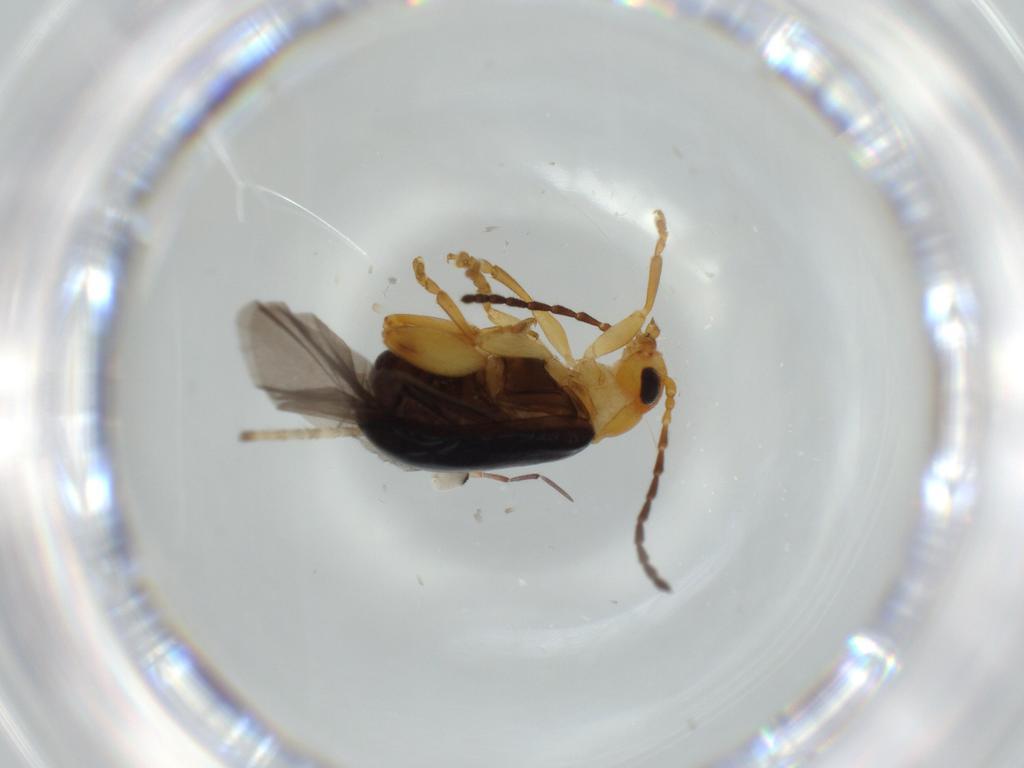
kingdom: Animalia
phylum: Arthropoda
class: Insecta
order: Coleoptera
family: Chrysomelidae
